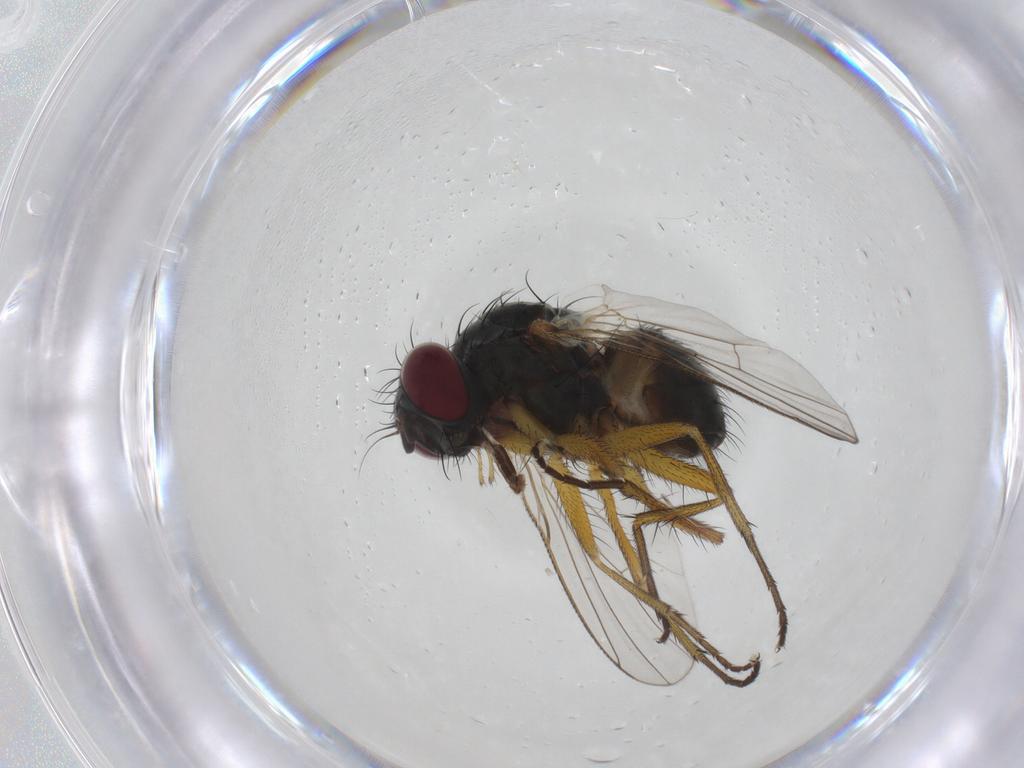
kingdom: Animalia
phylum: Arthropoda
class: Insecta
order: Diptera
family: Muscidae
